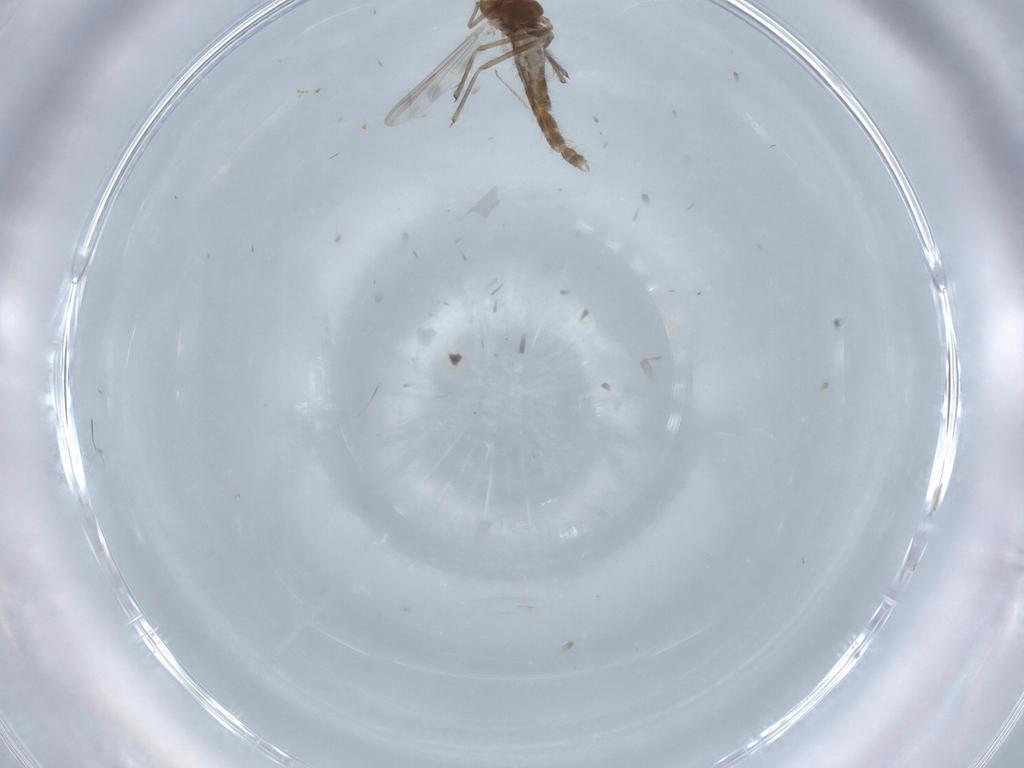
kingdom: Animalia
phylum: Arthropoda
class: Insecta
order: Diptera
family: Chironomidae
